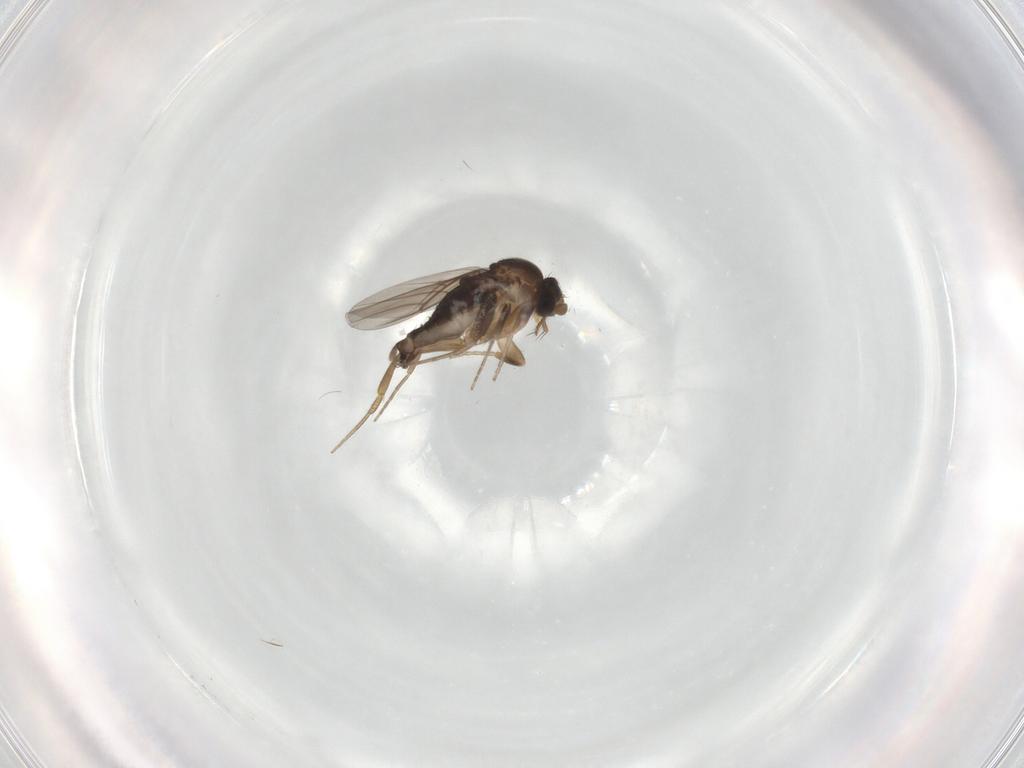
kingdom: Animalia
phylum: Arthropoda
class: Insecta
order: Diptera
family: Phoridae
